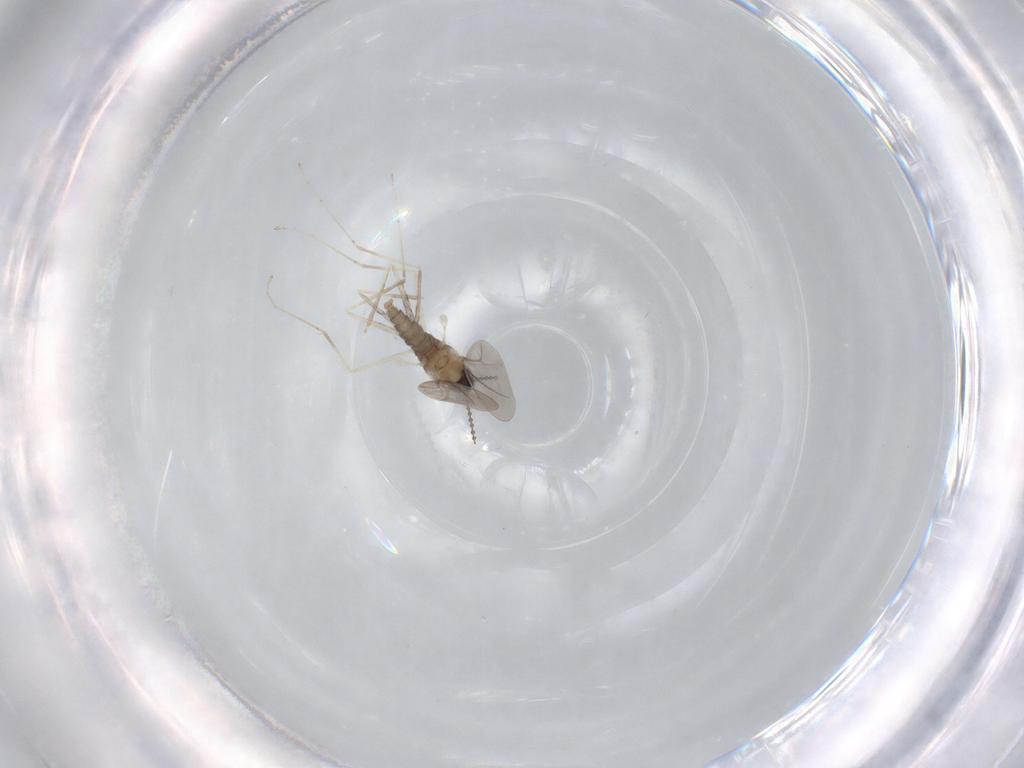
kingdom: Animalia
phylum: Arthropoda
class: Insecta
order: Diptera
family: Cecidomyiidae
